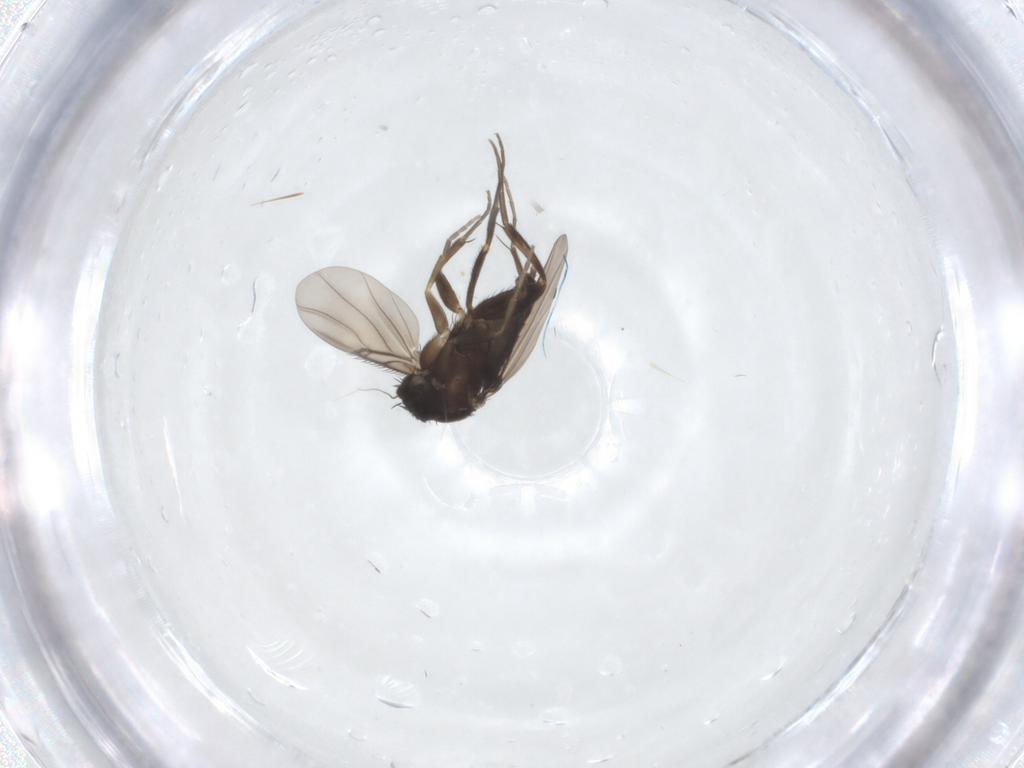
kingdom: Animalia
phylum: Arthropoda
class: Insecta
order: Diptera
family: Phoridae
